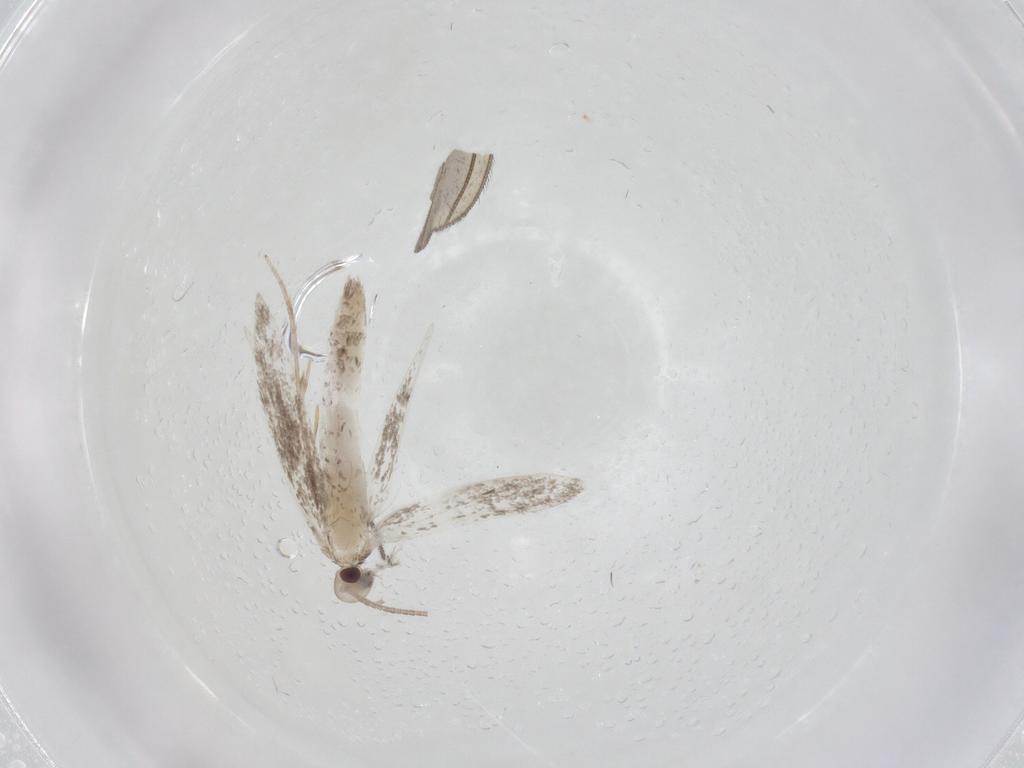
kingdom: Animalia
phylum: Arthropoda
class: Insecta
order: Lepidoptera
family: Gracillariidae
